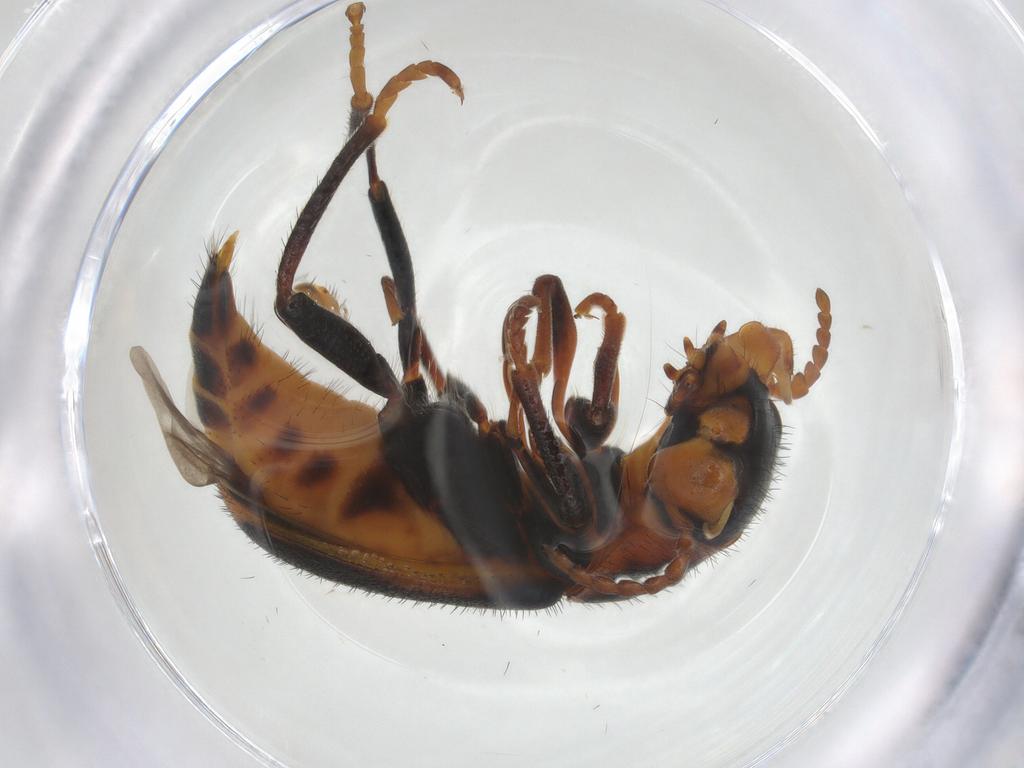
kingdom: Animalia
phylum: Arthropoda
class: Insecta
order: Coleoptera
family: Melyridae
